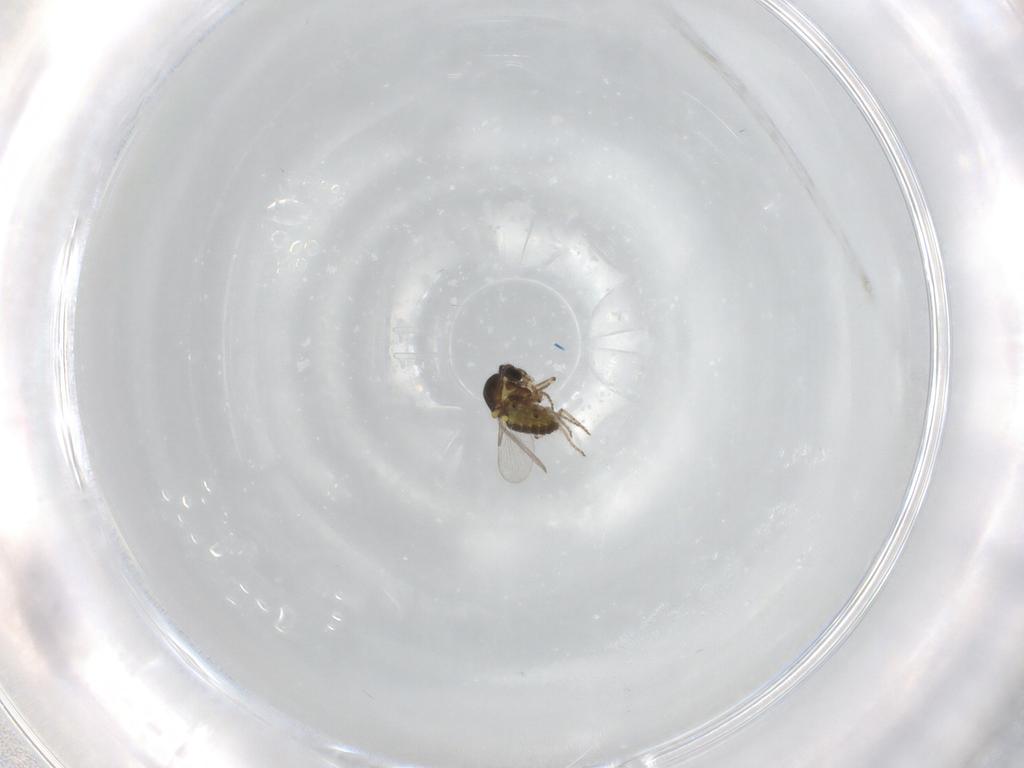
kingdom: Animalia
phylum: Arthropoda
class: Insecta
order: Diptera
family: Ceratopogonidae
